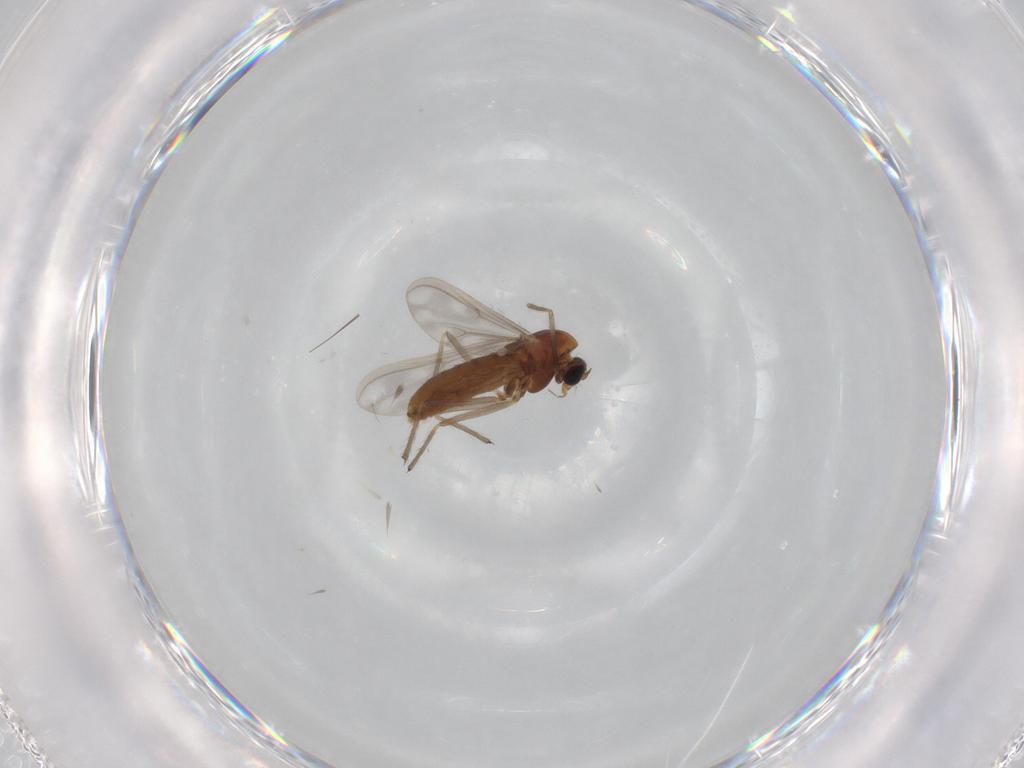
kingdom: Animalia
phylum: Arthropoda
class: Insecta
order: Diptera
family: Chironomidae
